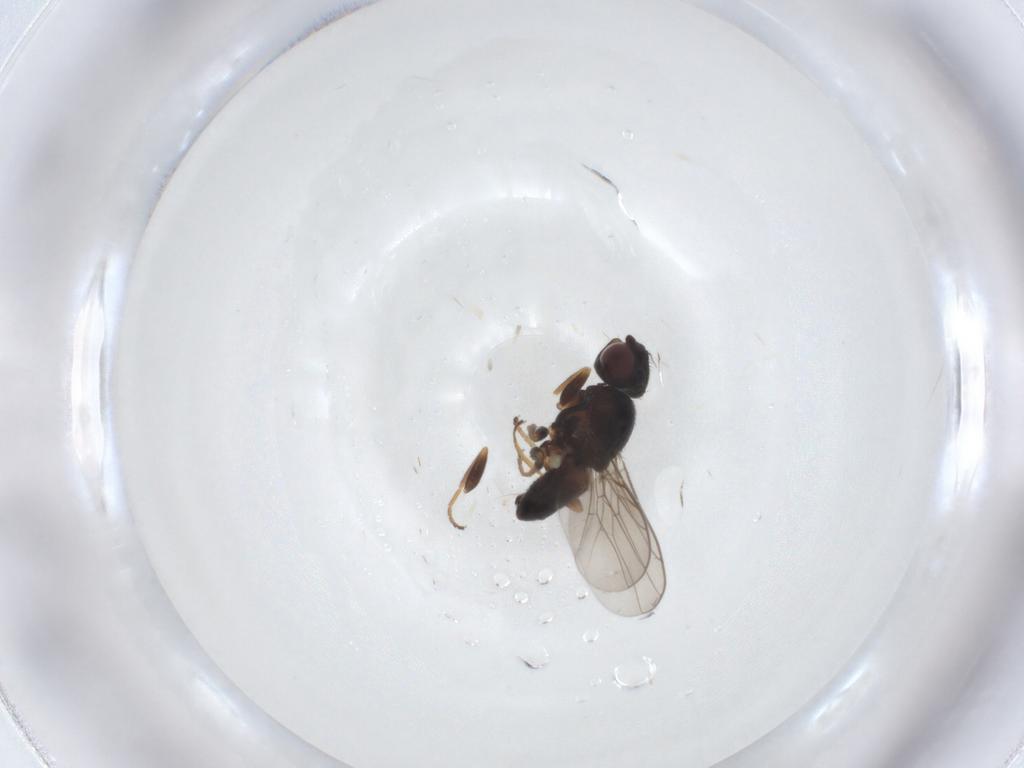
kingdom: Animalia
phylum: Arthropoda
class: Insecta
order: Diptera
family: Chloropidae
